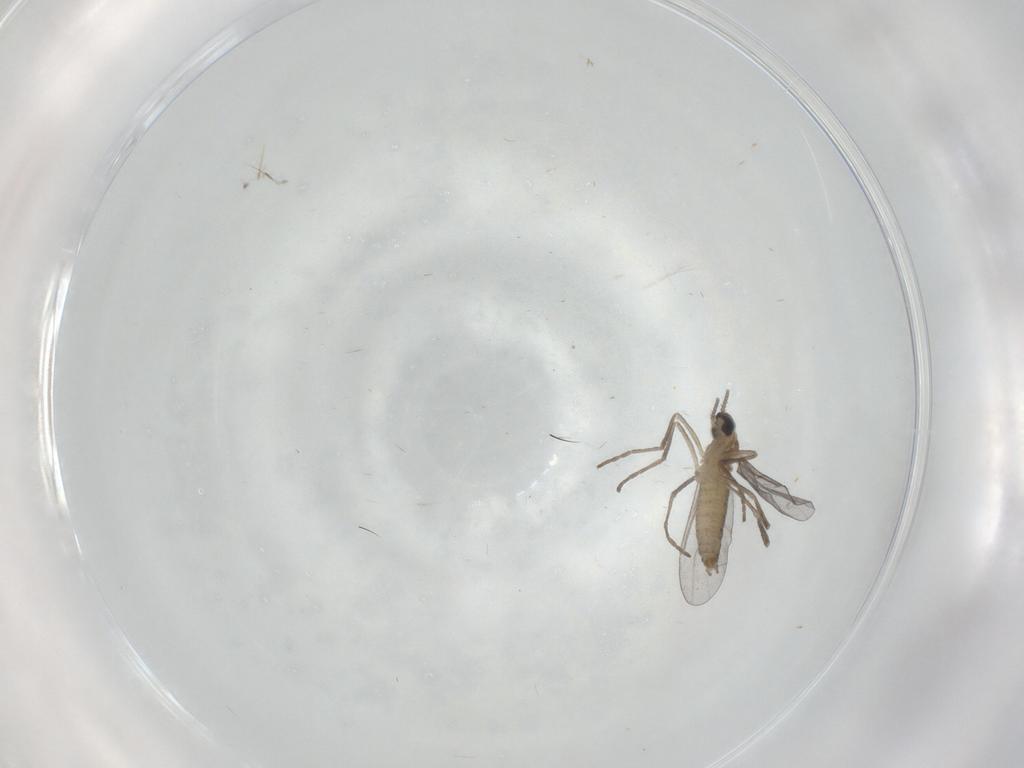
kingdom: Animalia
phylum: Arthropoda
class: Insecta
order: Diptera
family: Cecidomyiidae
